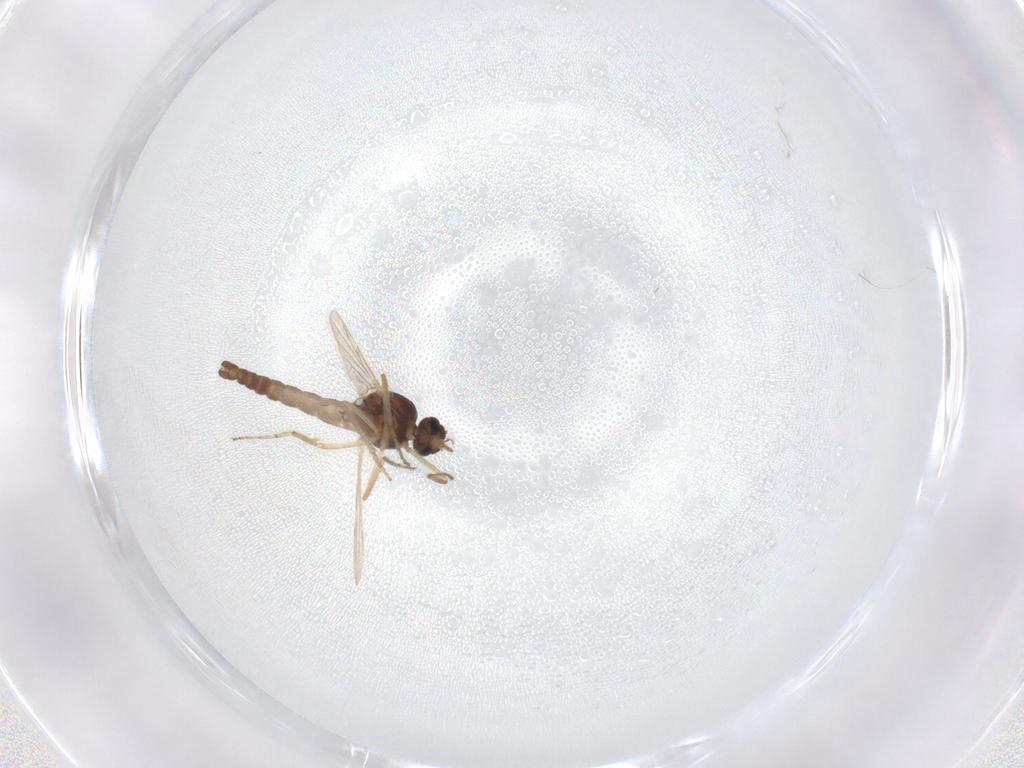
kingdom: Animalia
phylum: Arthropoda
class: Insecta
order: Diptera
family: Ceratopogonidae
